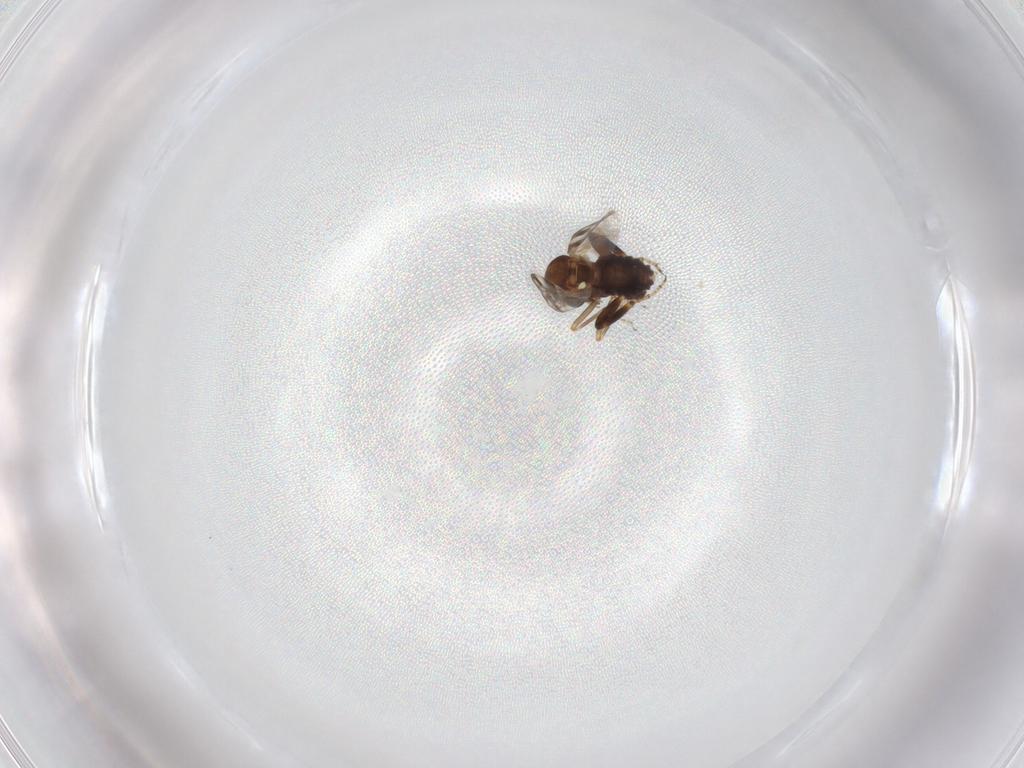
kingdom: Animalia
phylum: Arthropoda
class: Insecta
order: Diptera
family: Ceratopogonidae
